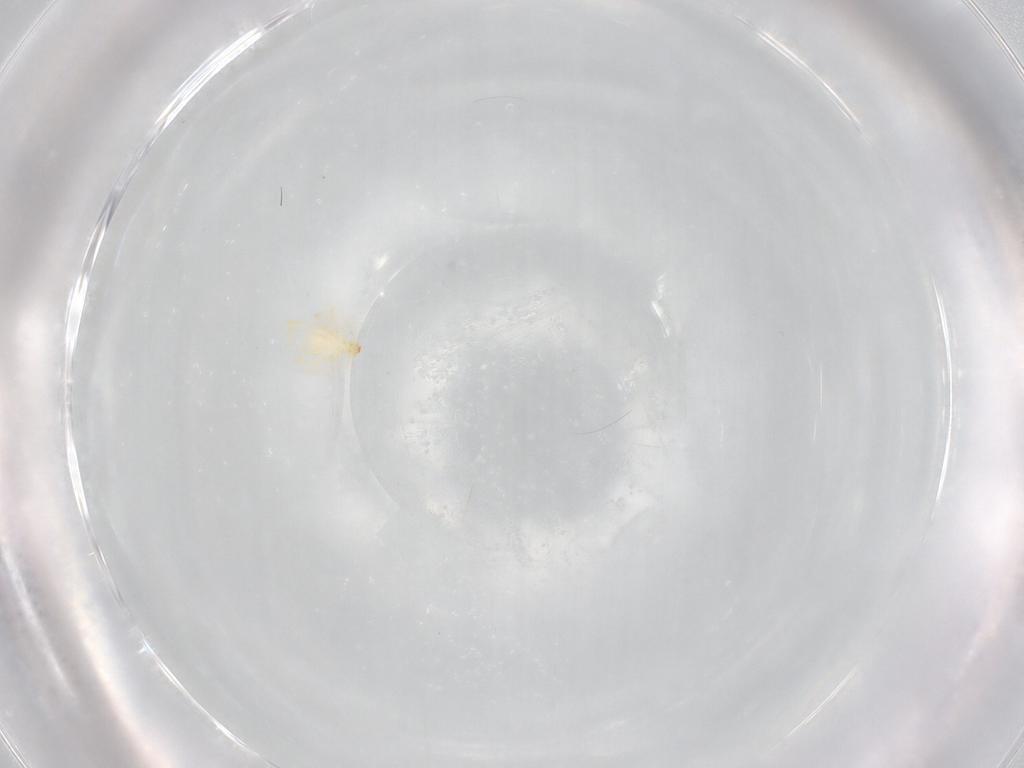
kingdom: Animalia
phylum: Arthropoda
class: Arachnida
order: Trombidiformes
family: Erythraeidae
